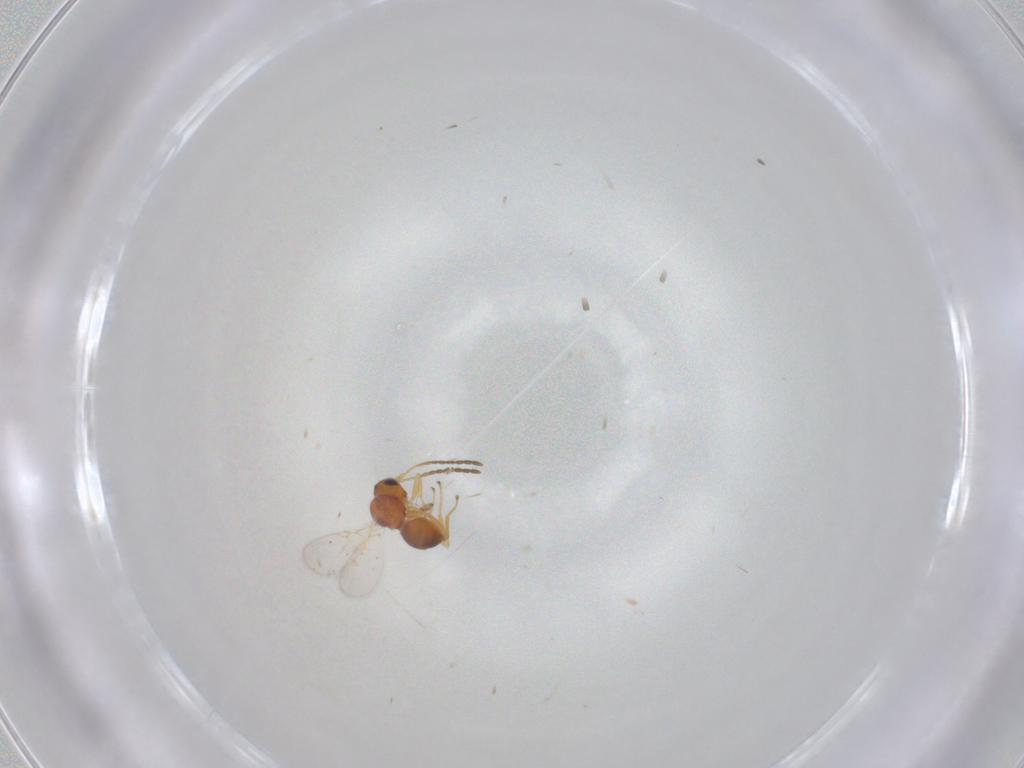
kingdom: Animalia
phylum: Arthropoda
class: Insecta
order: Hymenoptera
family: Figitidae
